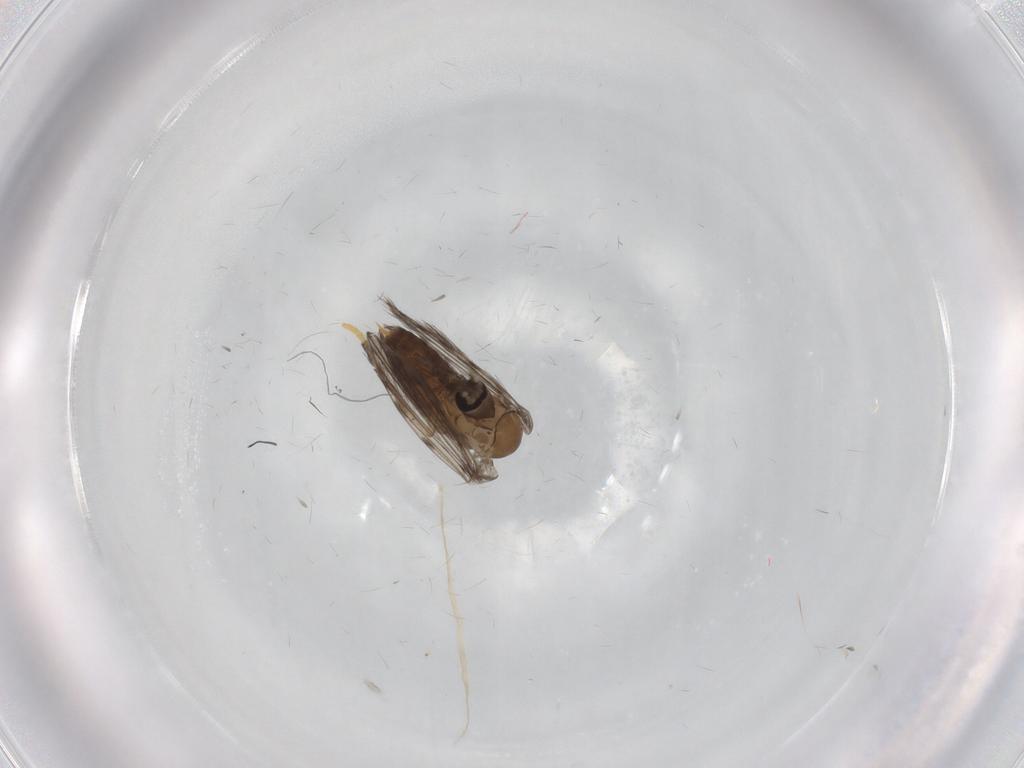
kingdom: Animalia
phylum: Arthropoda
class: Insecta
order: Diptera
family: Psychodidae
